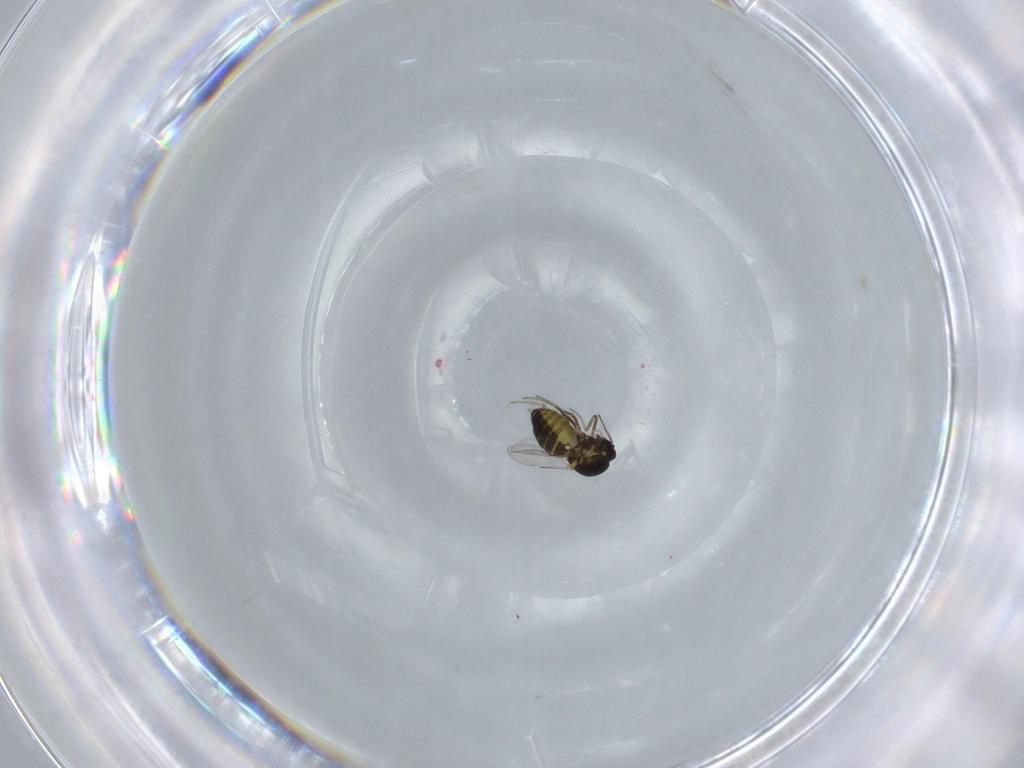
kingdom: Animalia
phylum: Arthropoda
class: Insecta
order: Diptera
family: Ceratopogonidae
